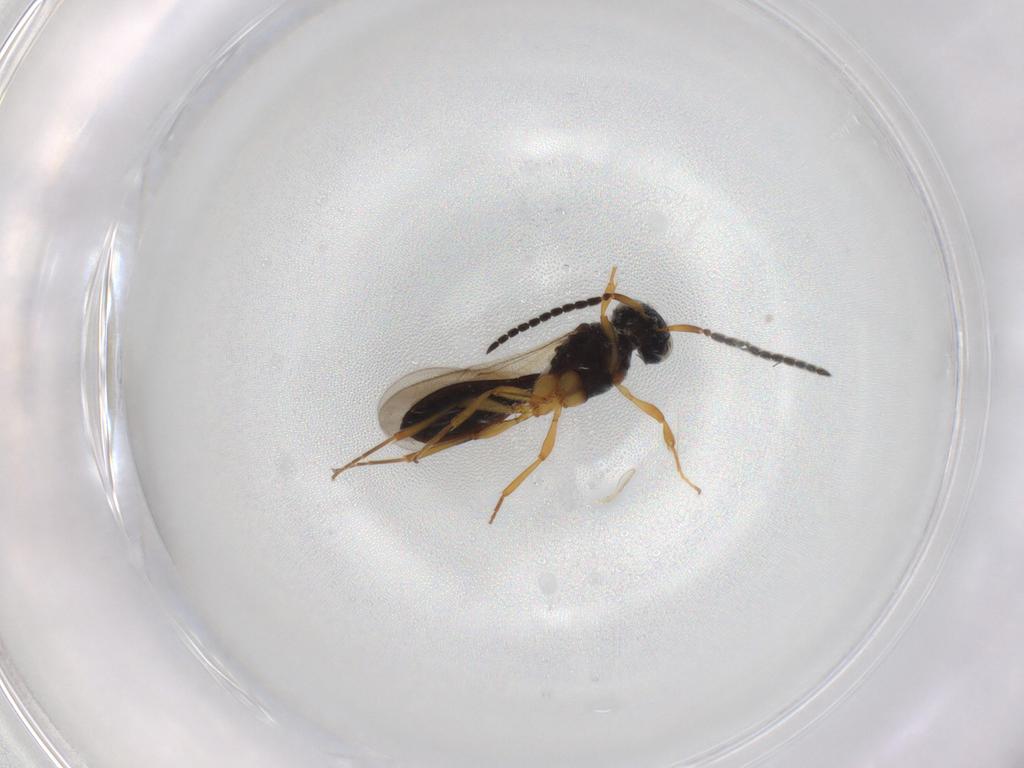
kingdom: Animalia
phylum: Arthropoda
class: Insecta
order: Hymenoptera
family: Scelionidae
